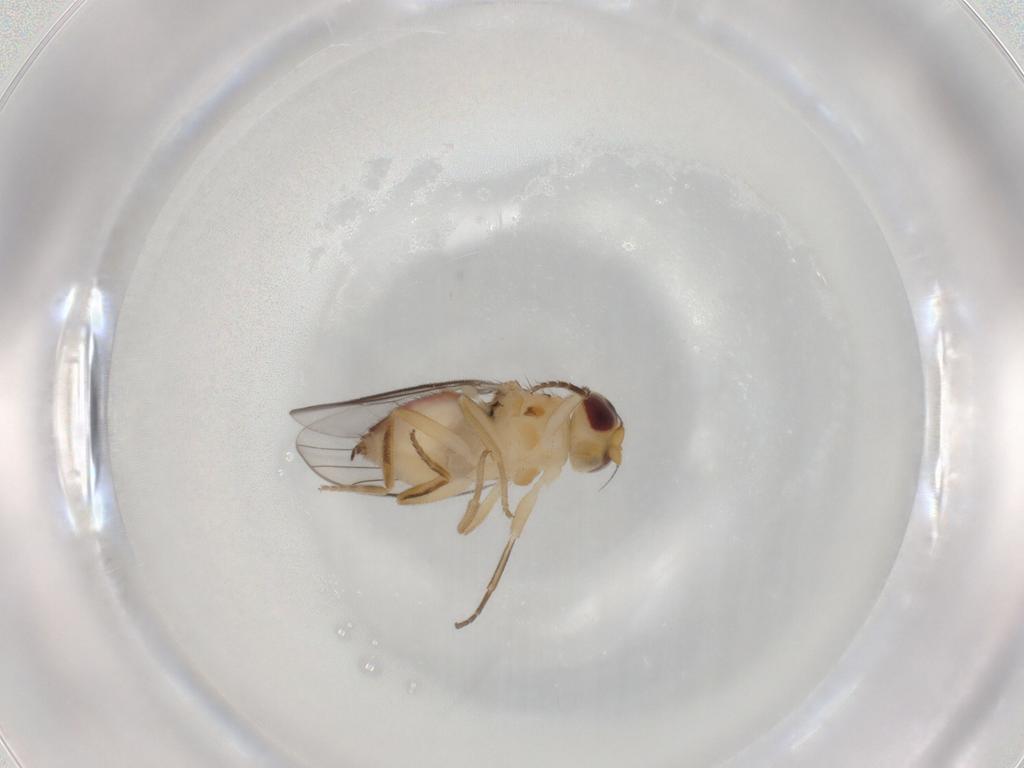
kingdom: Animalia
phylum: Arthropoda
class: Insecta
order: Diptera
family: Chloropidae
